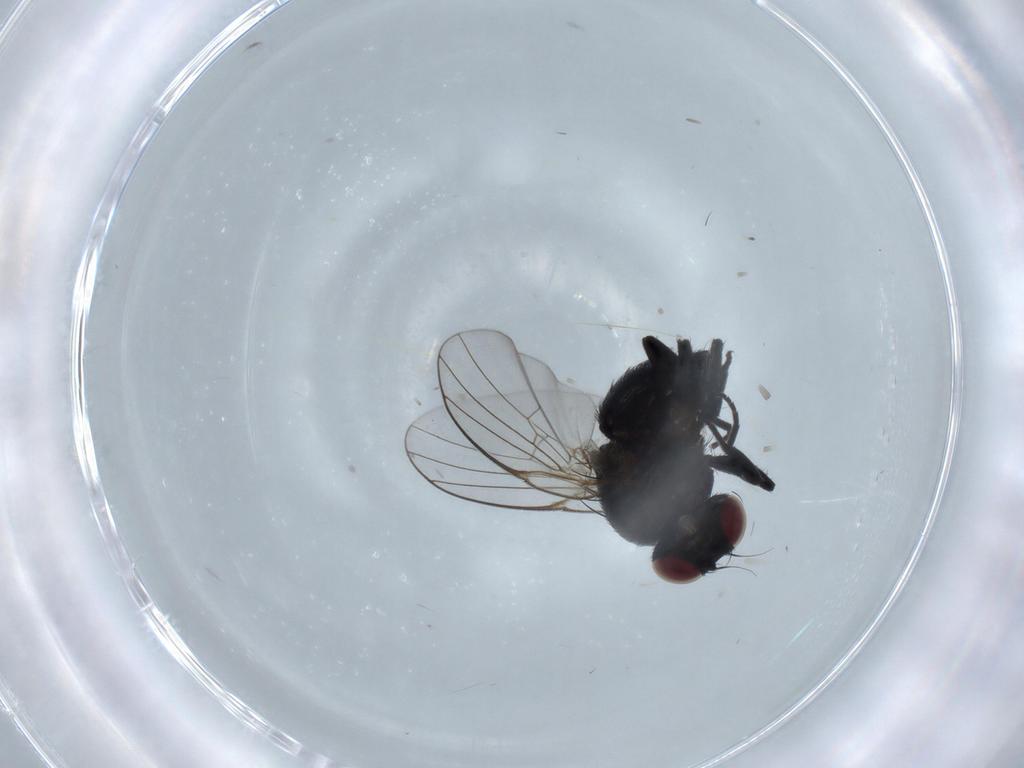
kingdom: Animalia
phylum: Arthropoda
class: Insecta
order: Diptera
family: Agromyzidae
